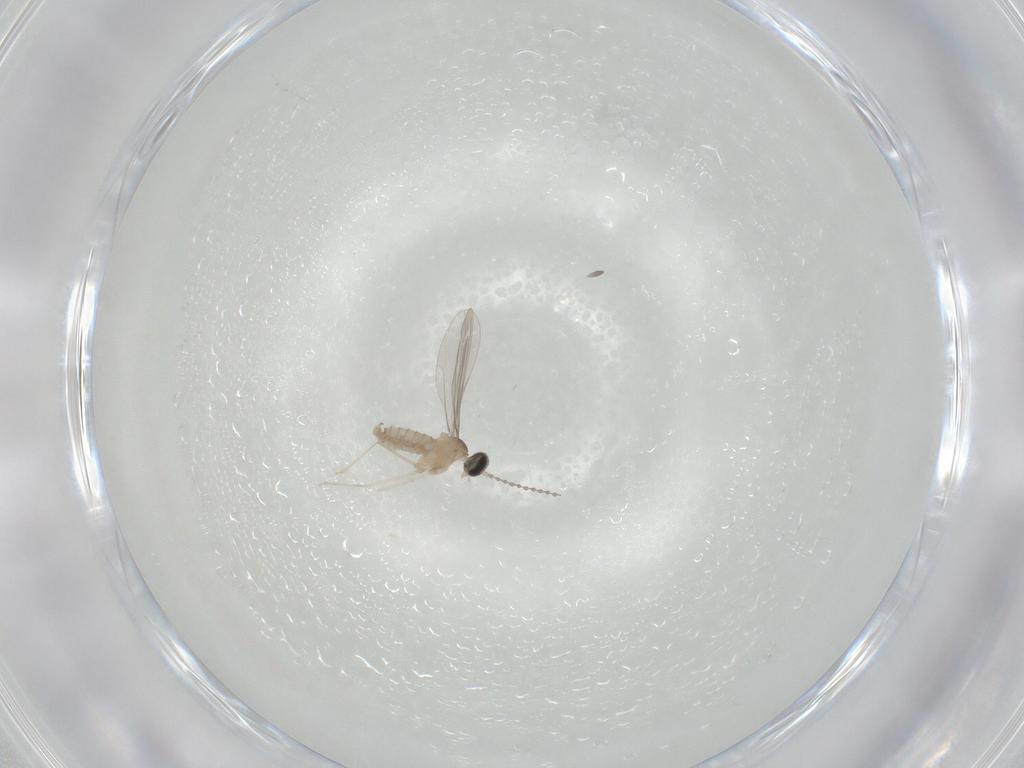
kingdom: Animalia
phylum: Arthropoda
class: Insecta
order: Diptera
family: Cecidomyiidae
